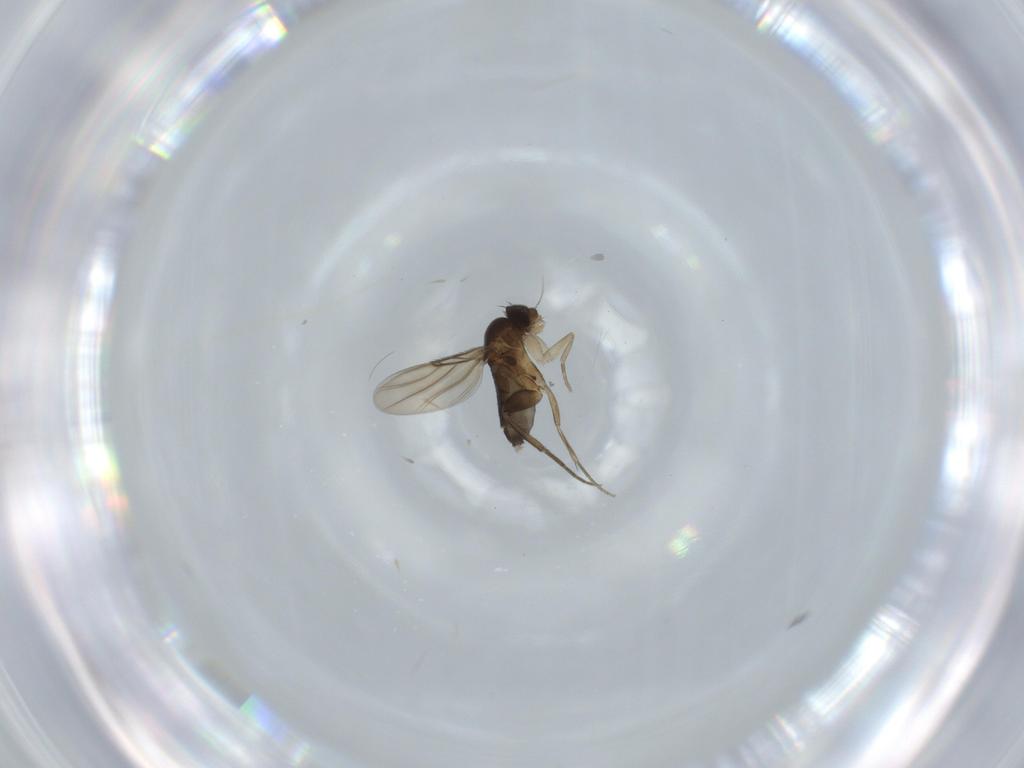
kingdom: Animalia
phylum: Arthropoda
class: Insecta
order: Diptera
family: Phoridae
